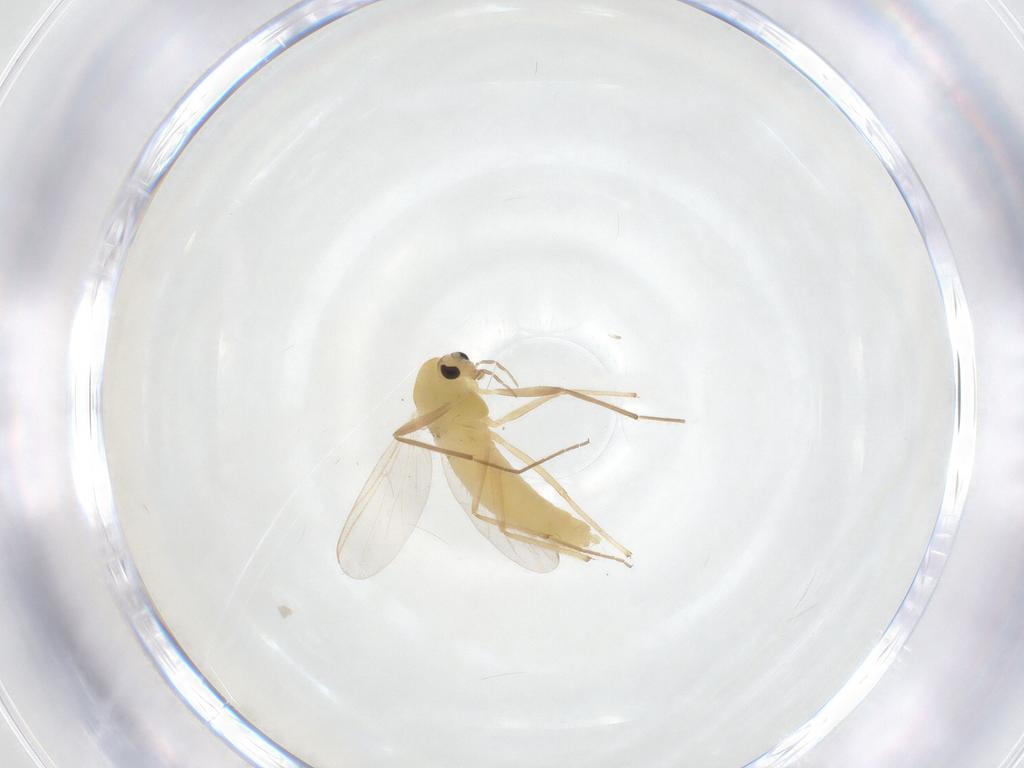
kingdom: Animalia
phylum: Arthropoda
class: Insecta
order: Diptera
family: Chironomidae
